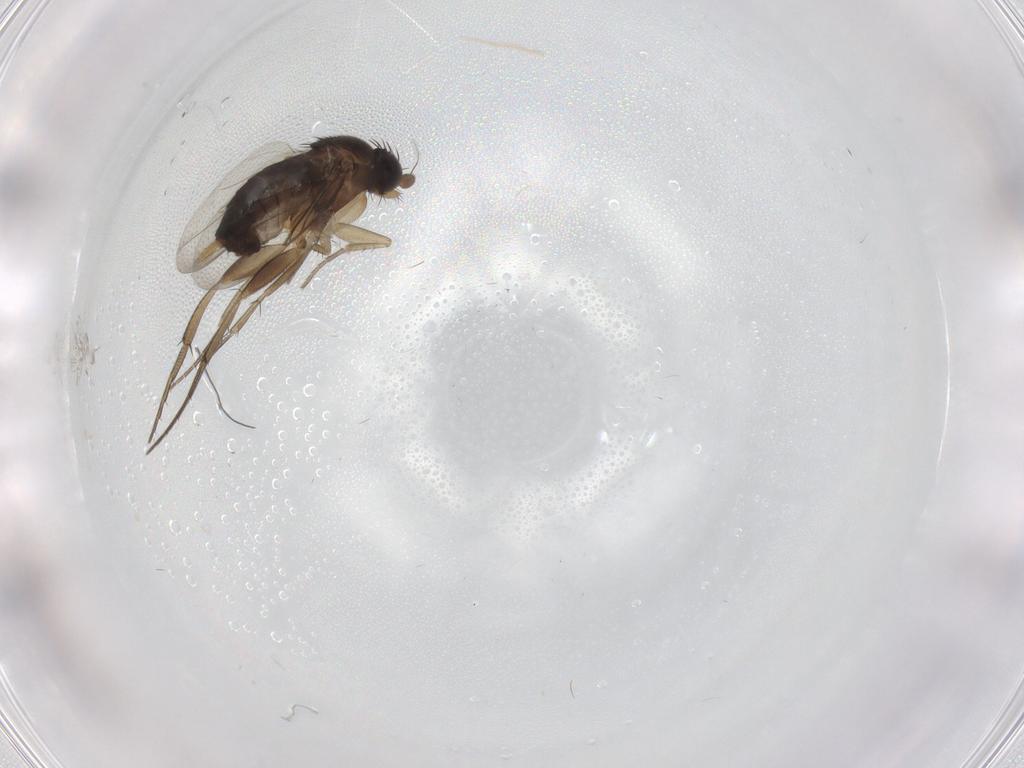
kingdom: Animalia
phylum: Arthropoda
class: Insecta
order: Diptera
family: Phoridae
